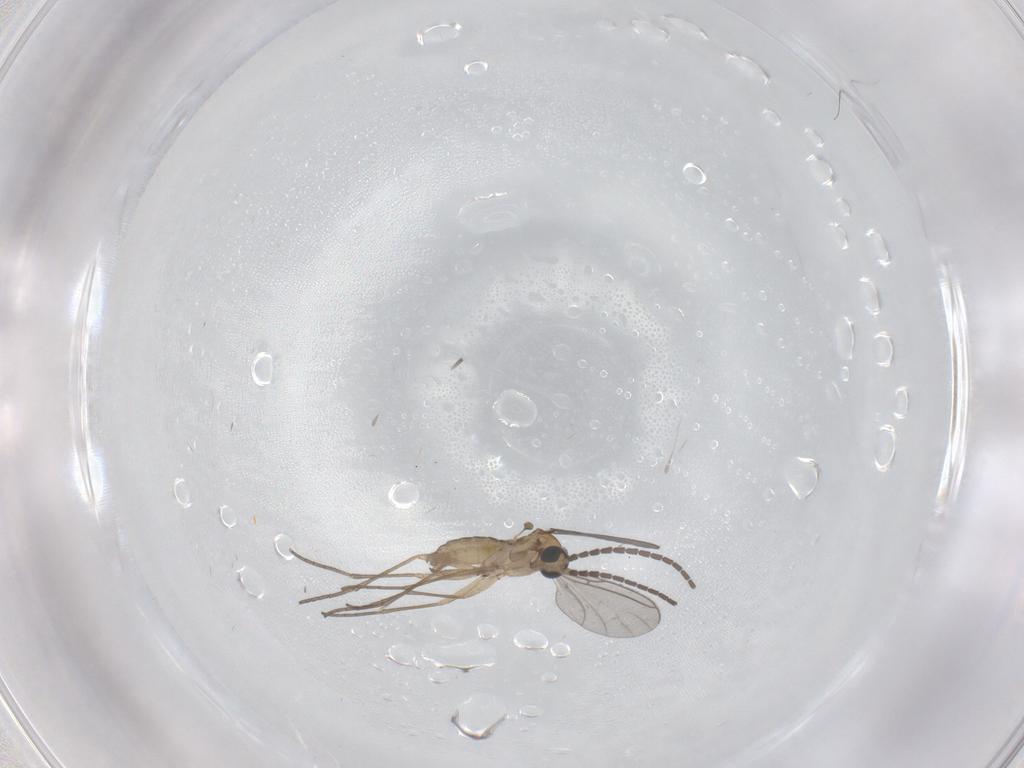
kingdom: Animalia
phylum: Arthropoda
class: Insecta
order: Diptera
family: Sciaridae
